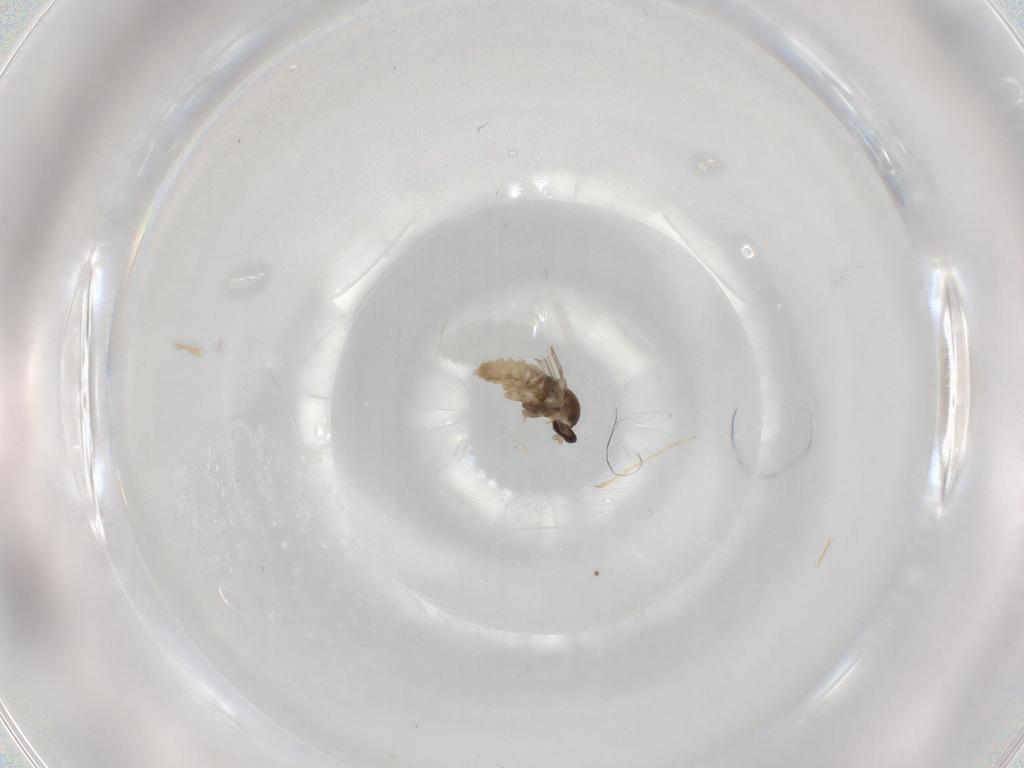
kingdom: Animalia
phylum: Arthropoda
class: Insecta
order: Diptera
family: Cecidomyiidae
